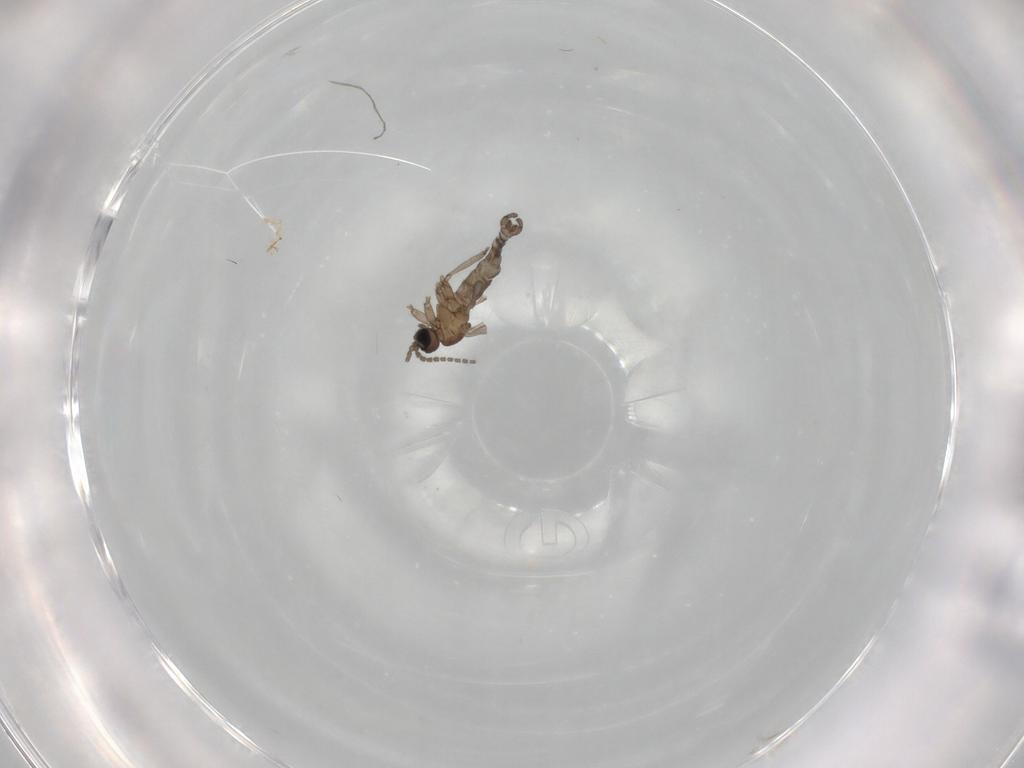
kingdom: Animalia
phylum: Arthropoda
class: Insecta
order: Diptera
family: Sciaridae
